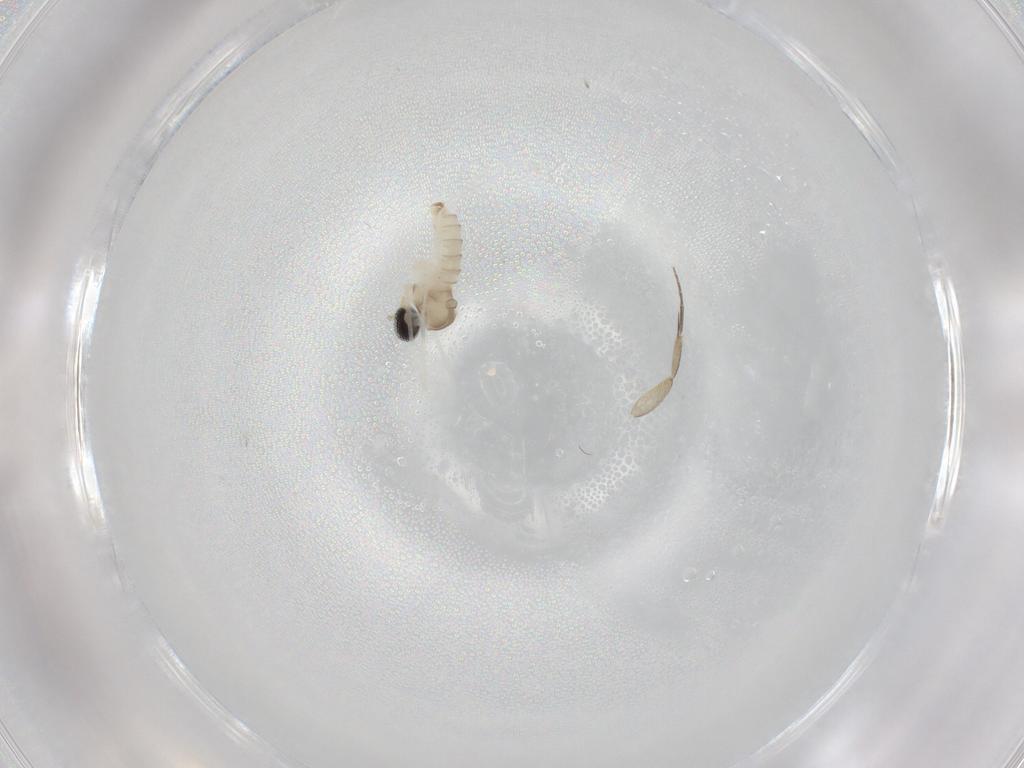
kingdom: Animalia
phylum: Arthropoda
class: Insecta
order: Diptera
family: Cecidomyiidae
